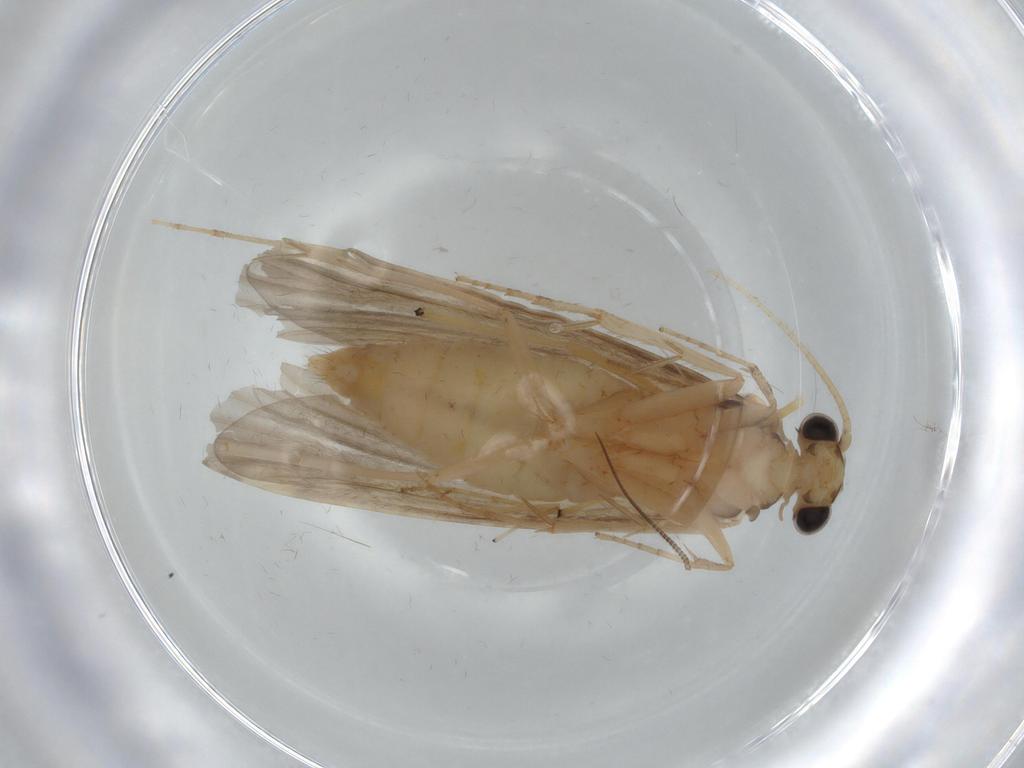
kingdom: Animalia
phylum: Arthropoda
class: Insecta
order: Trichoptera
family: Ecnomidae
